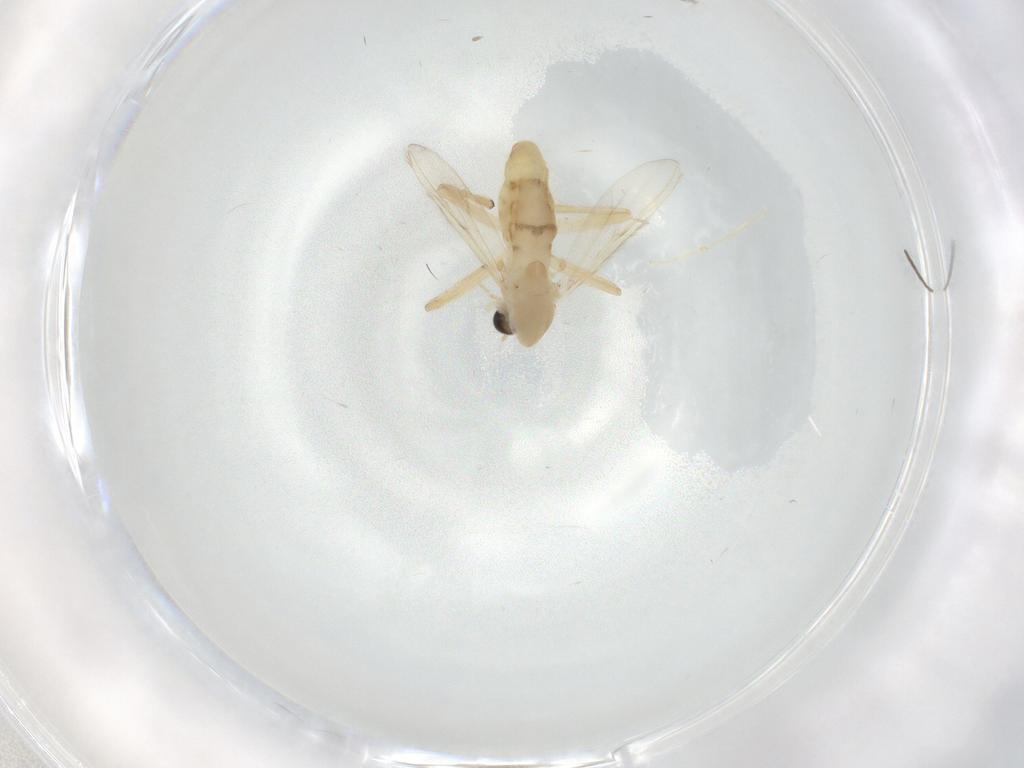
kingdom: Animalia
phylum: Arthropoda
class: Insecta
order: Diptera
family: Chironomidae
